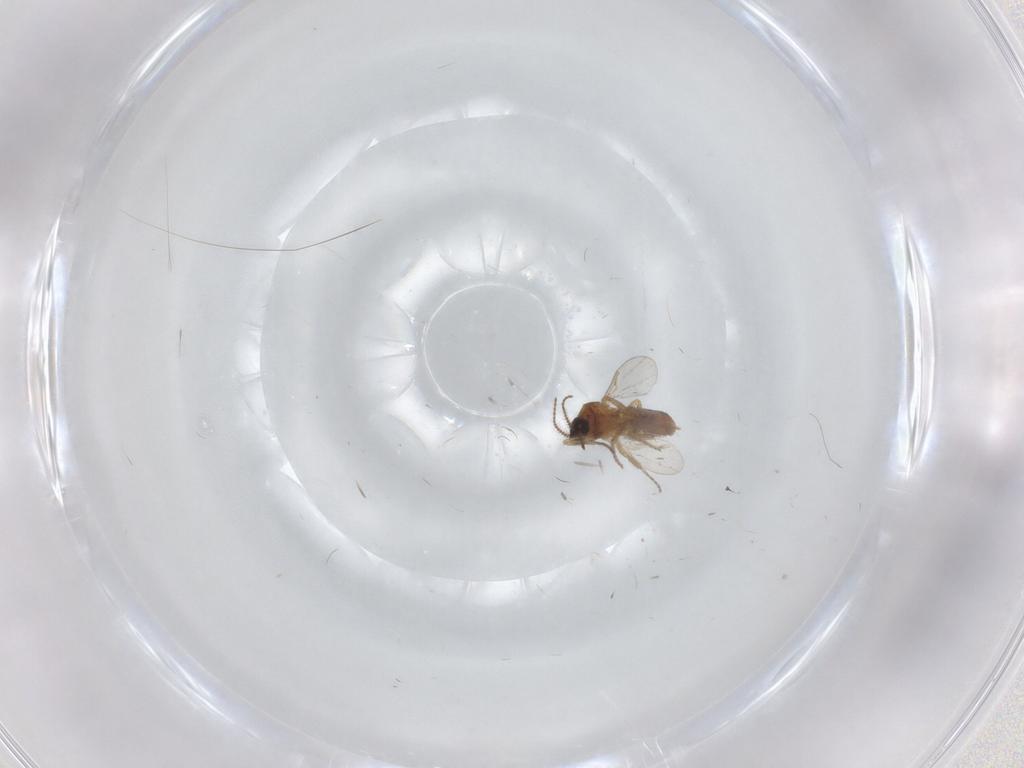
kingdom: Animalia
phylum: Arthropoda
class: Insecta
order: Diptera
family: Ceratopogonidae
